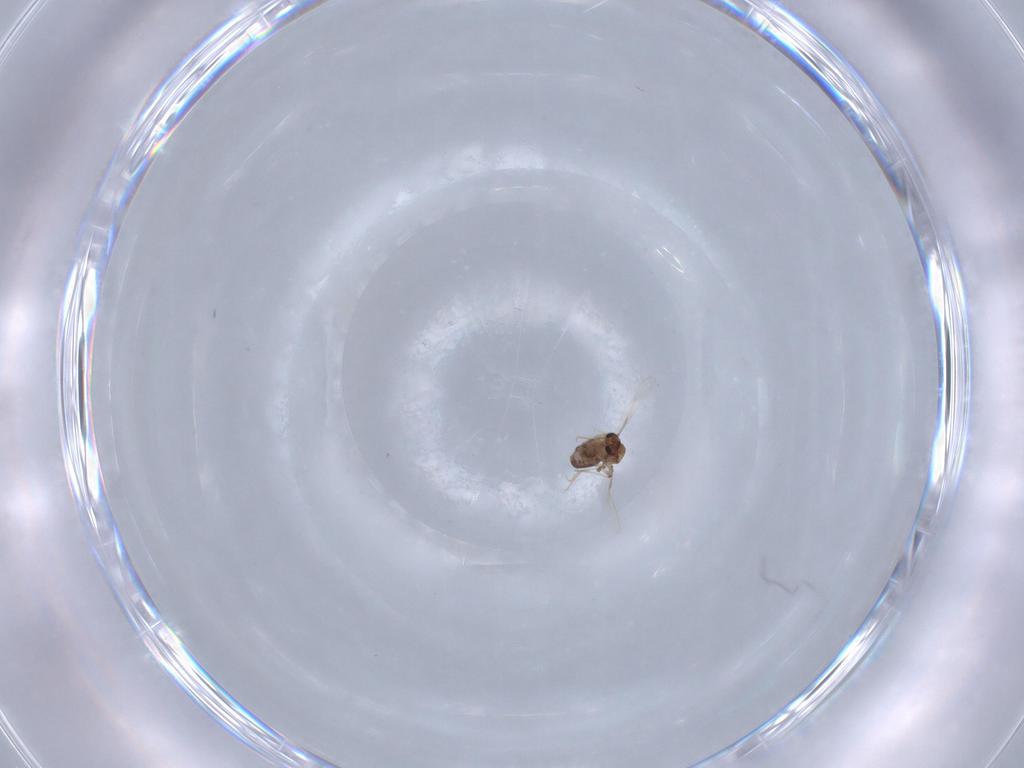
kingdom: Animalia
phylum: Arthropoda
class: Insecta
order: Diptera
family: Chironomidae
